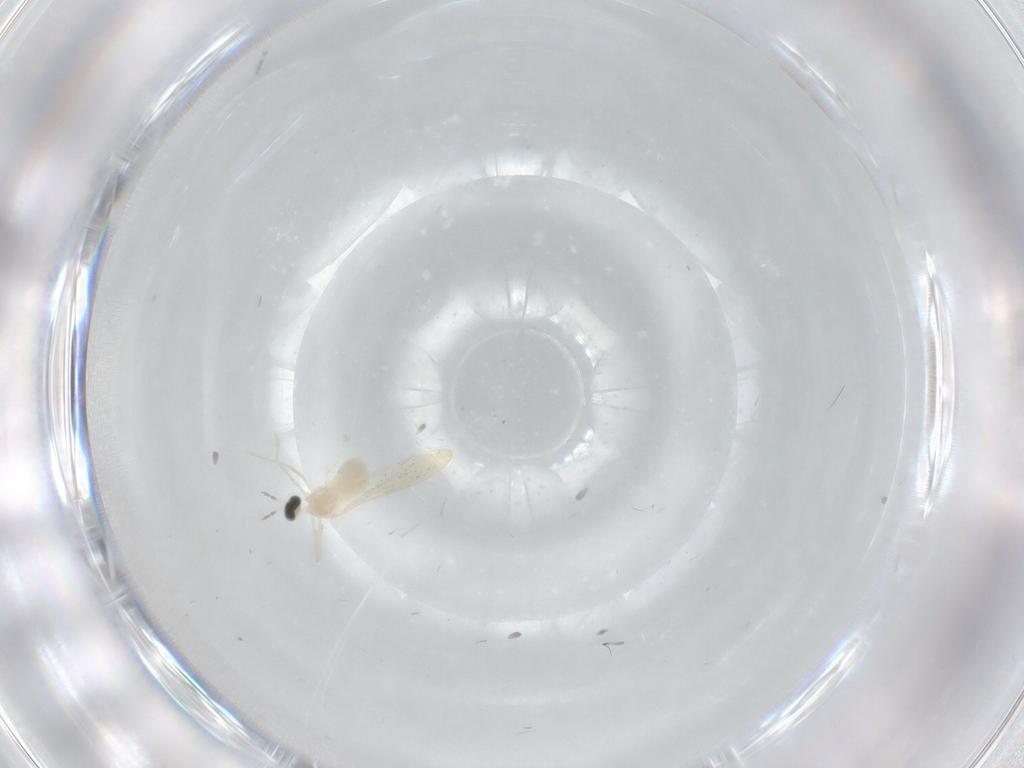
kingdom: Animalia
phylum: Arthropoda
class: Insecta
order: Diptera
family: Cecidomyiidae
